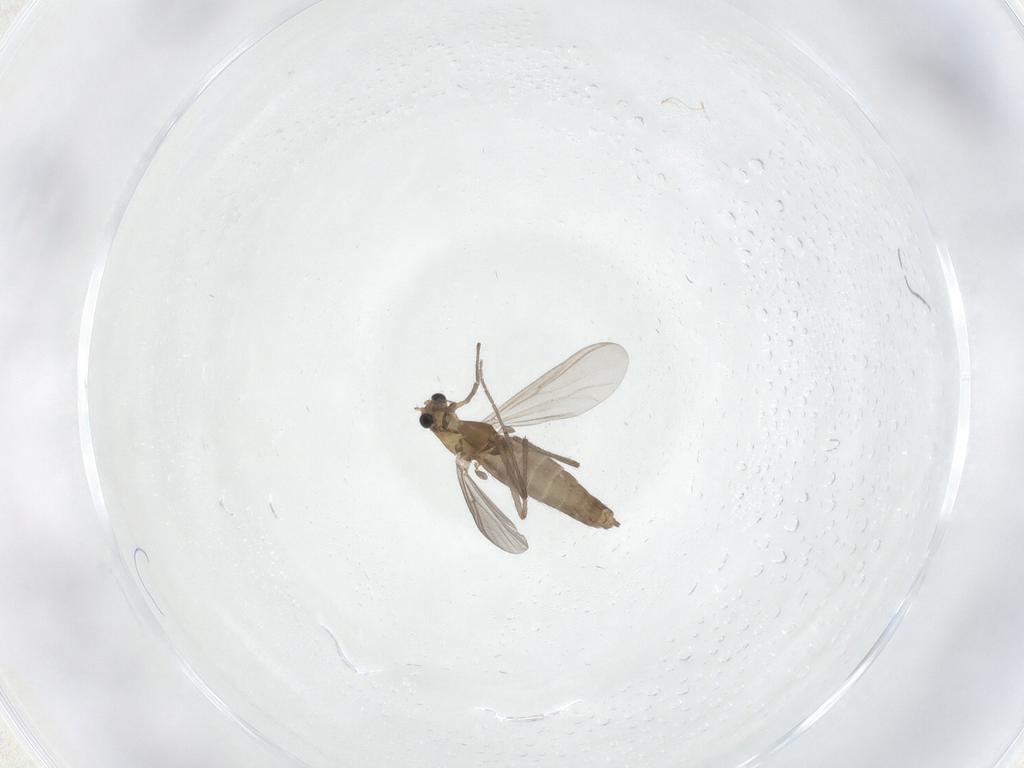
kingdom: Animalia
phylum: Arthropoda
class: Insecta
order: Diptera
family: Chironomidae
